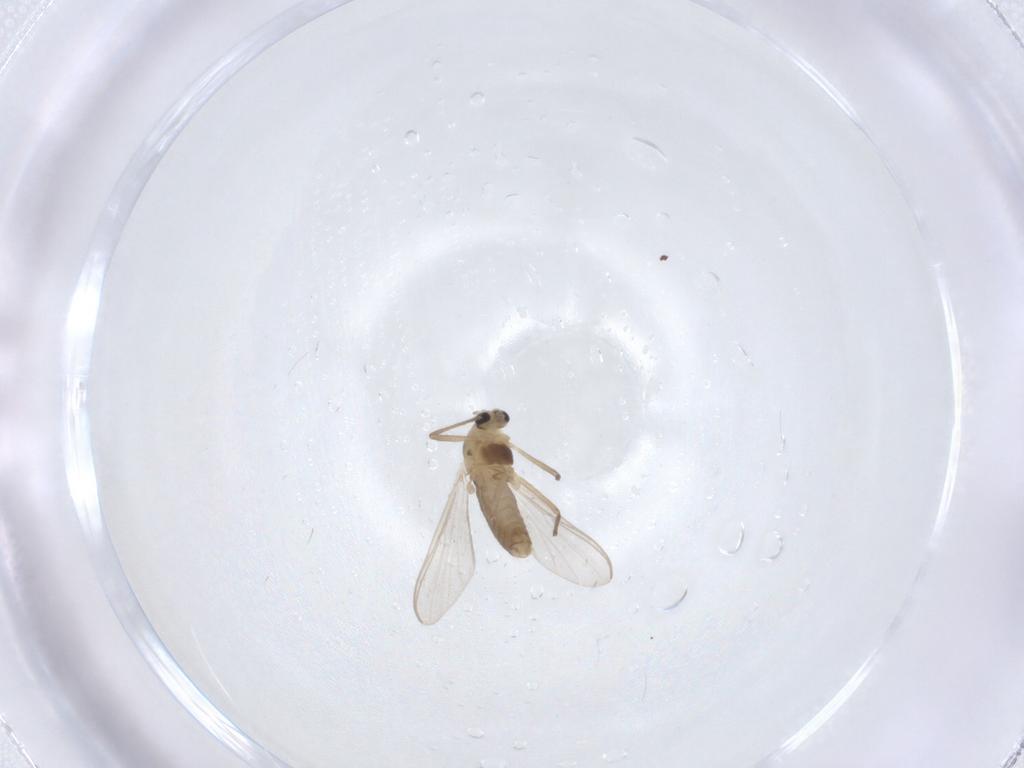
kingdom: Animalia
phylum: Arthropoda
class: Insecta
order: Diptera
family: Chironomidae
